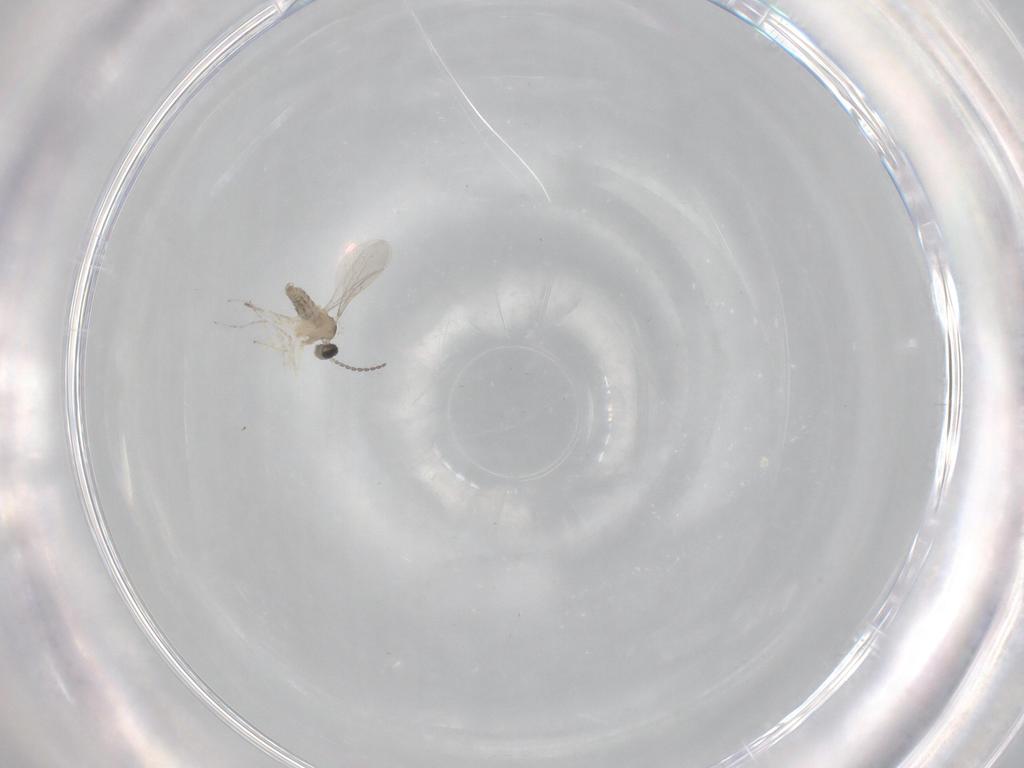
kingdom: Animalia
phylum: Arthropoda
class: Insecta
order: Diptera
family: Cecidomyiidae
